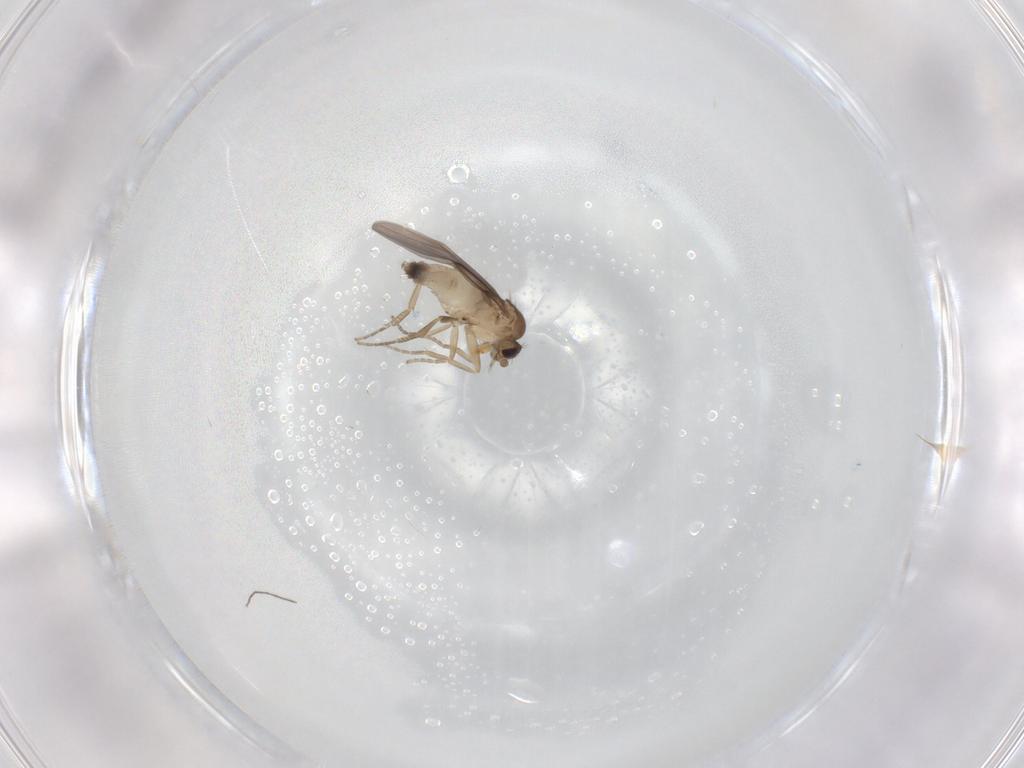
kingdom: Animalia
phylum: Arthropoda
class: Insecta
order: Diptera
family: Phoridae
